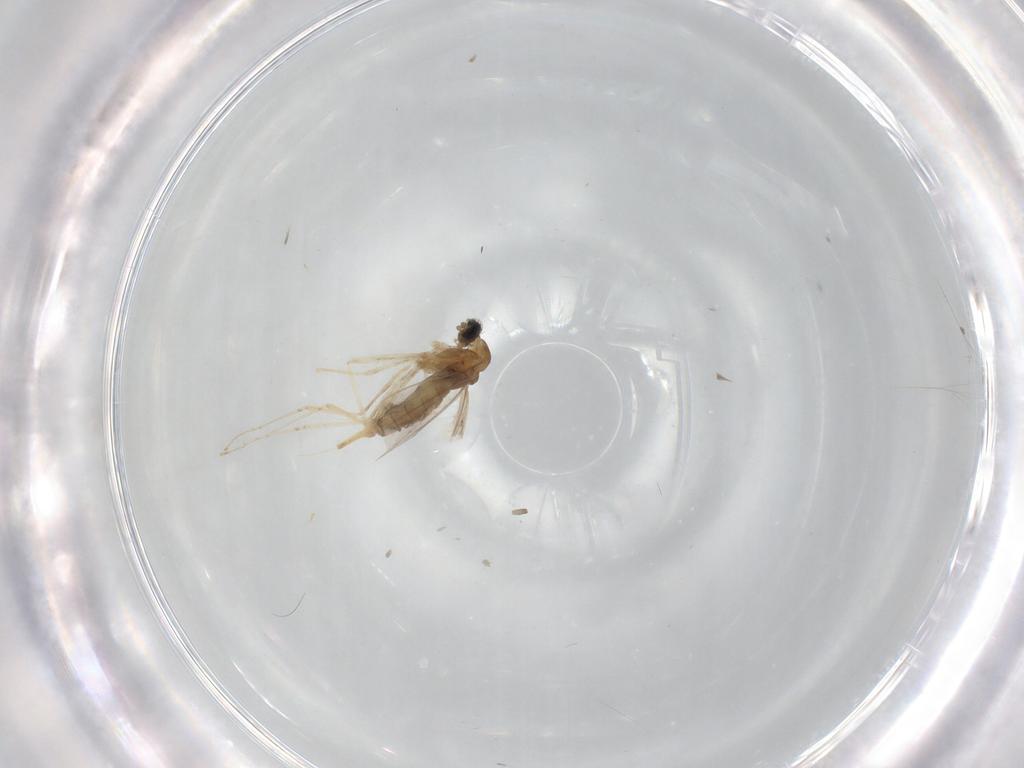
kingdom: Animalia
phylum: Arthropoda
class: Insecta
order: Diptera
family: Cecidomyiidae
